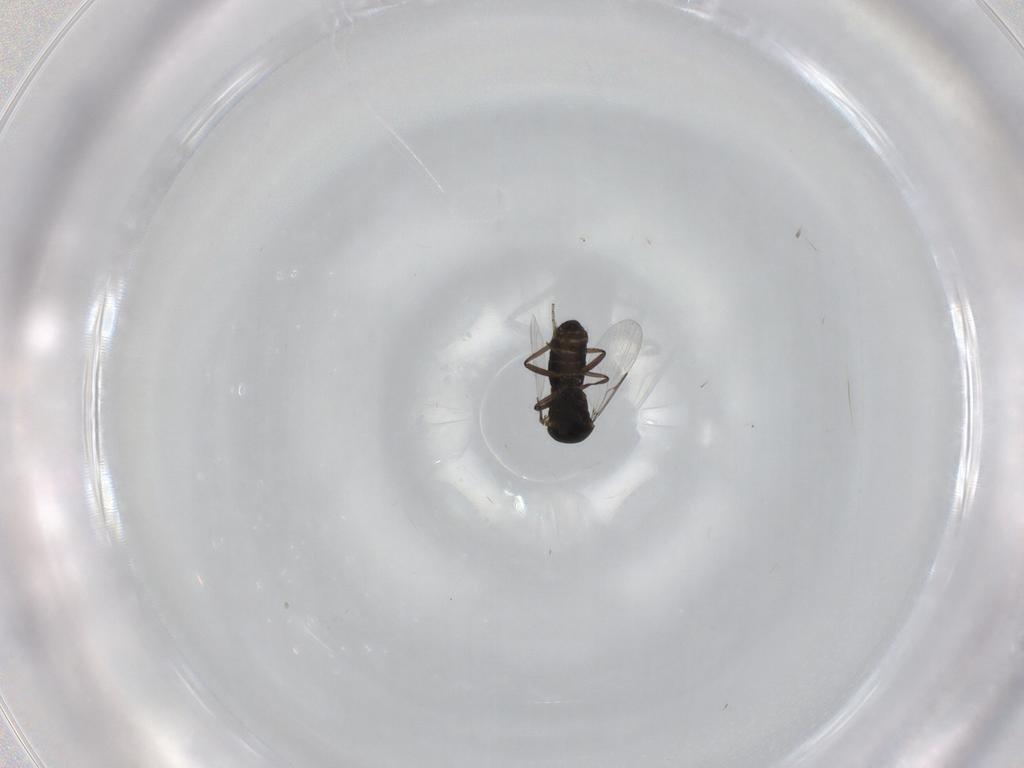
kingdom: Animalia
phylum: Arthropoda
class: Insecta
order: Diptera
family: Ceratopogonidae
